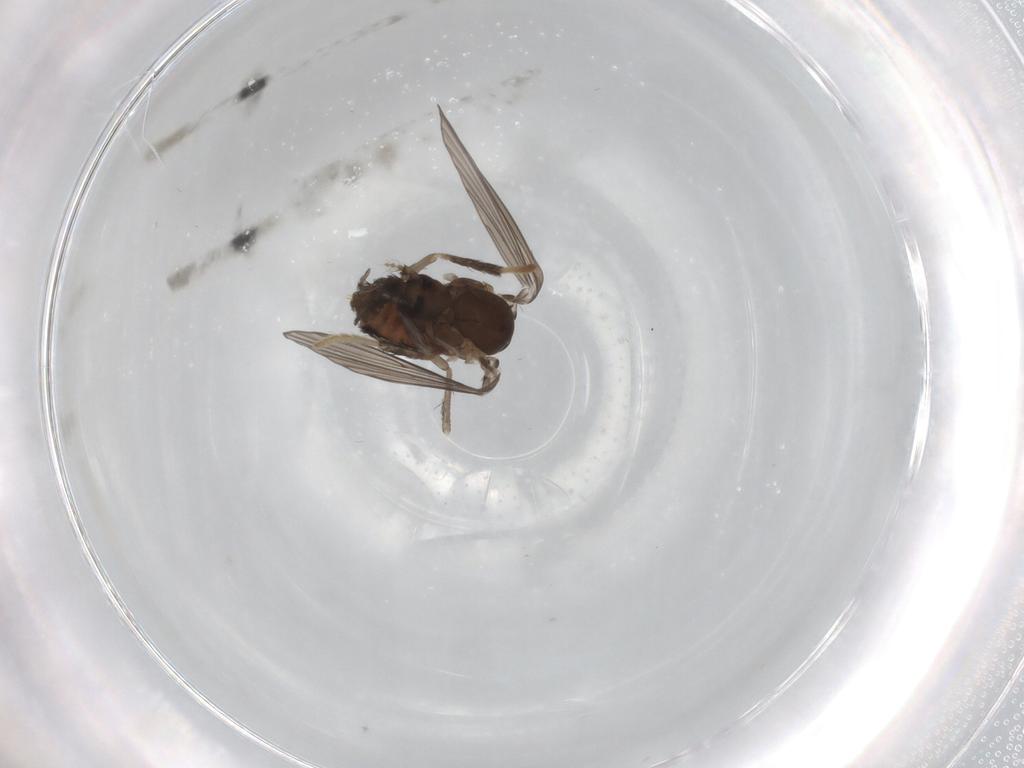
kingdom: Animalia
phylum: Arthropoda
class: Insecta
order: Diptera
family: Psychodidae
